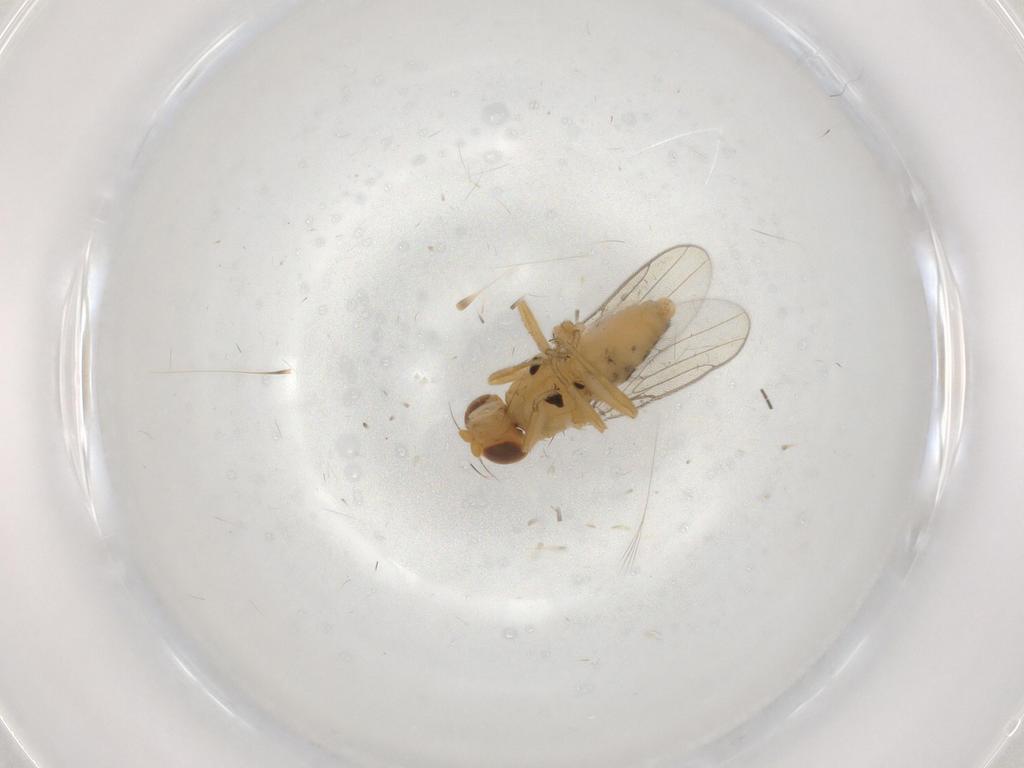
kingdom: Animalia
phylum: Arthropoda
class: Insecta
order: Diptera
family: Chloropidae
